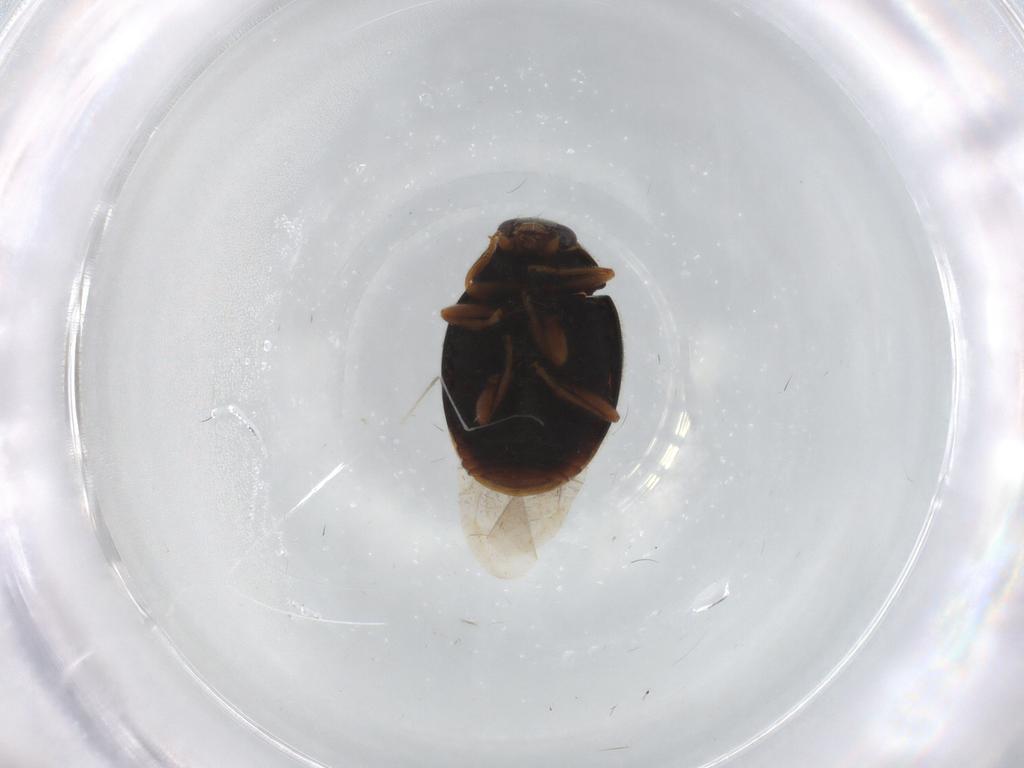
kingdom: Animalia
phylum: Arthropoda
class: Insecta
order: Coleoptera
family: Coccinellidae
